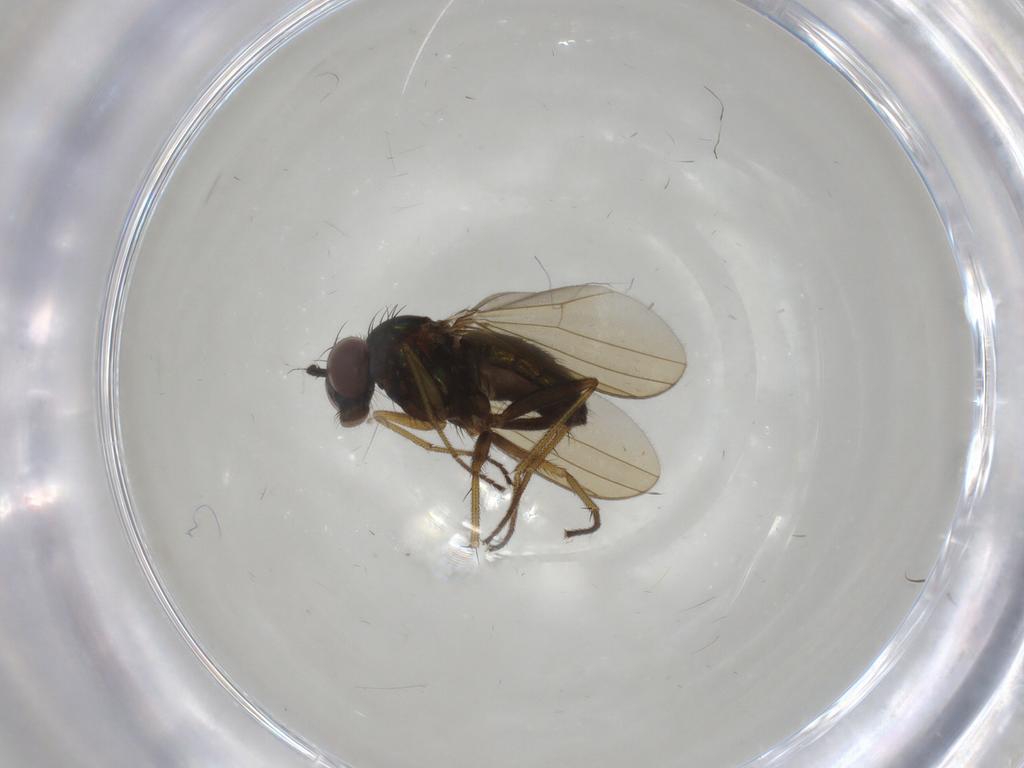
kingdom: Animalia
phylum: Arthropoda
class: Insecta
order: Diptera
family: Dolichopodidae
